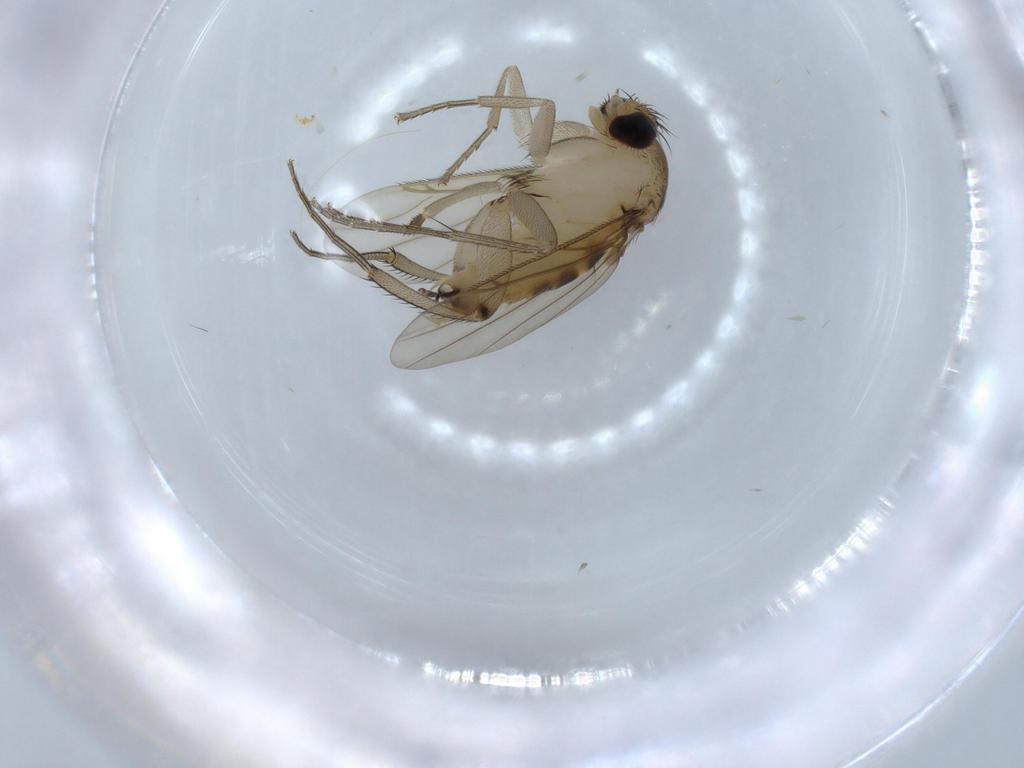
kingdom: Animalia
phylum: Arthropoda
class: Insecta
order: Diptera
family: Phoridae
